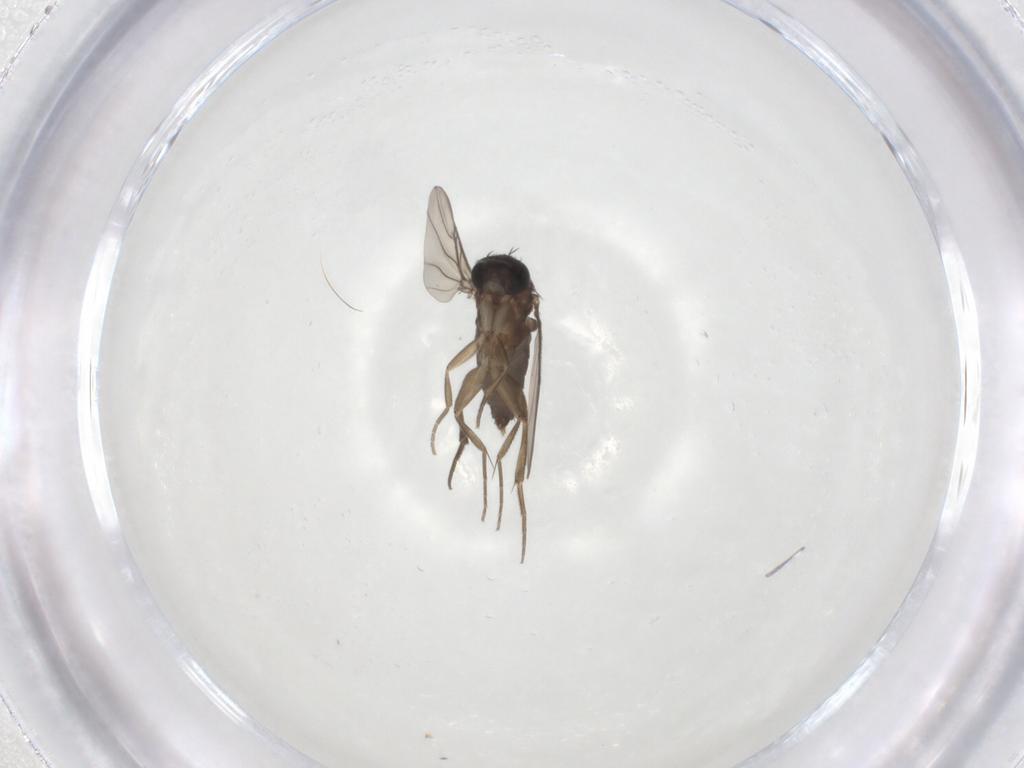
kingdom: Animalia
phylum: Arthropoda
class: Insecta
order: Diptera
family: Phoridae
